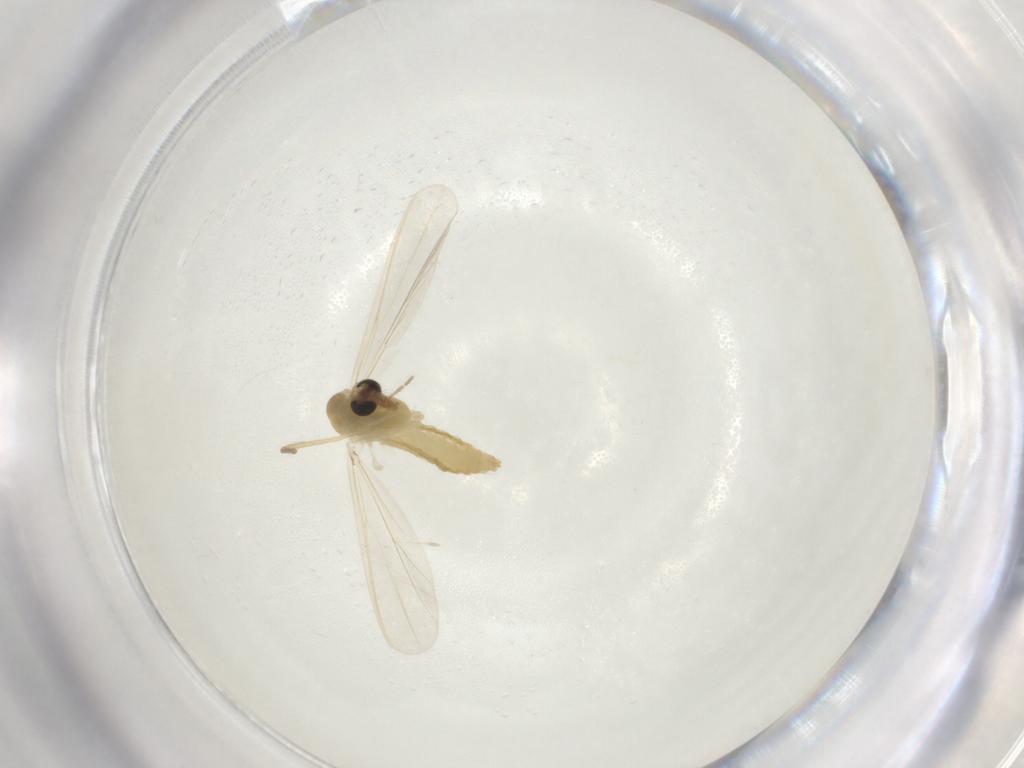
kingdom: Animalia
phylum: Arthropoda
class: Insecta
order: Diptera
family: Chironomidae
